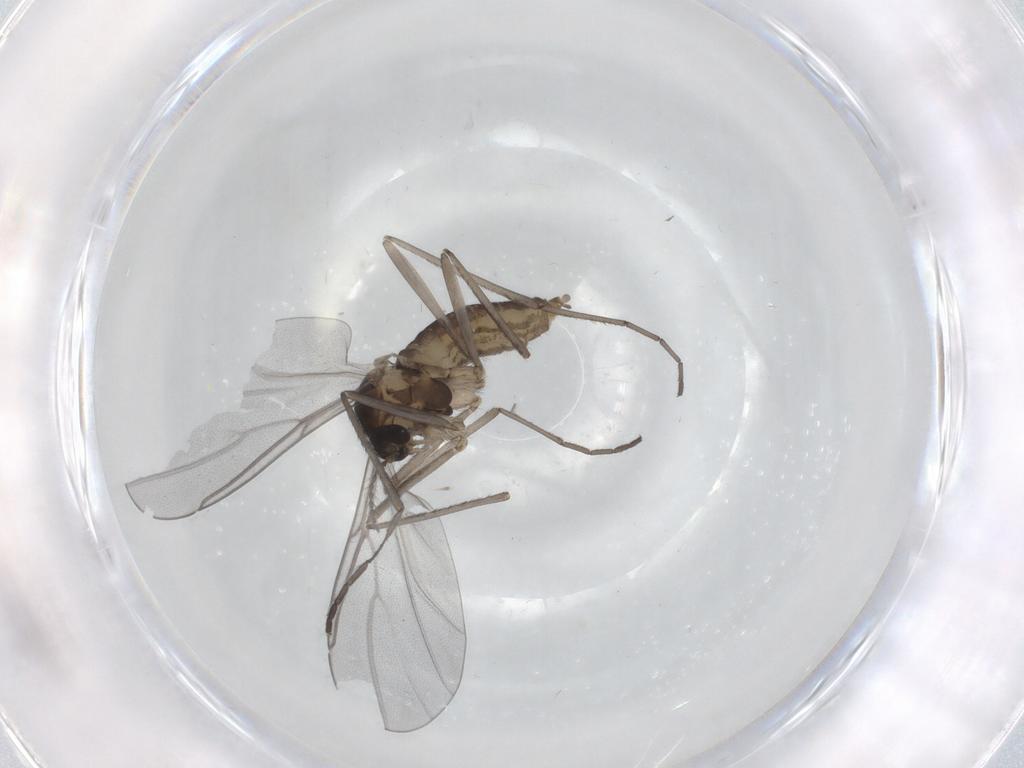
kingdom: Animalia
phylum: Arthropoda
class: Insecta
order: Diptera
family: Cecidomyiidae
